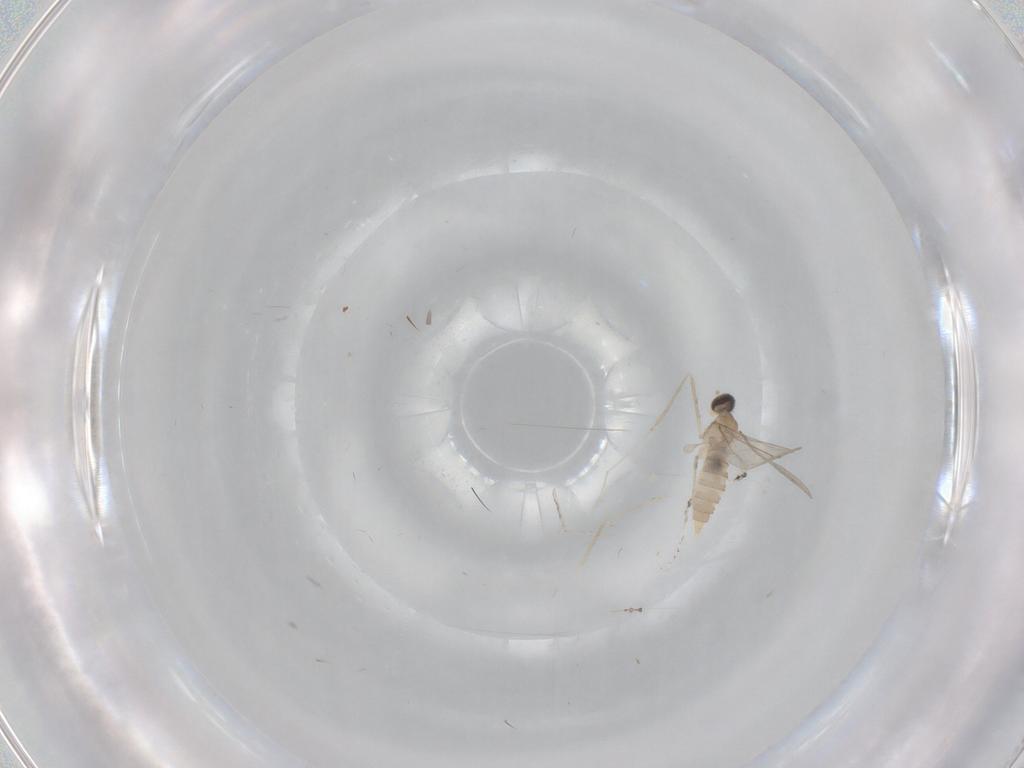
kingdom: Animalia
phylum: Arthropoda
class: Insecta
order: Diptera
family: Cecidomyiidae
